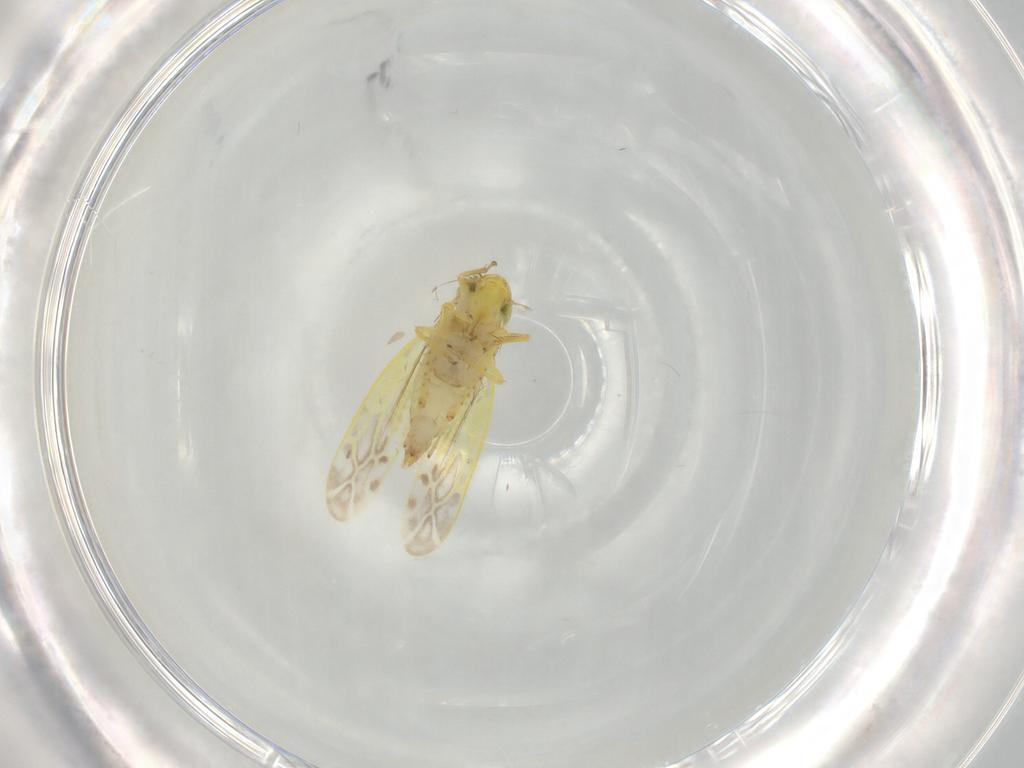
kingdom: Animalia
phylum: Arthropoda
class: Insecta
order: Hemiptera
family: Cicadellidae
